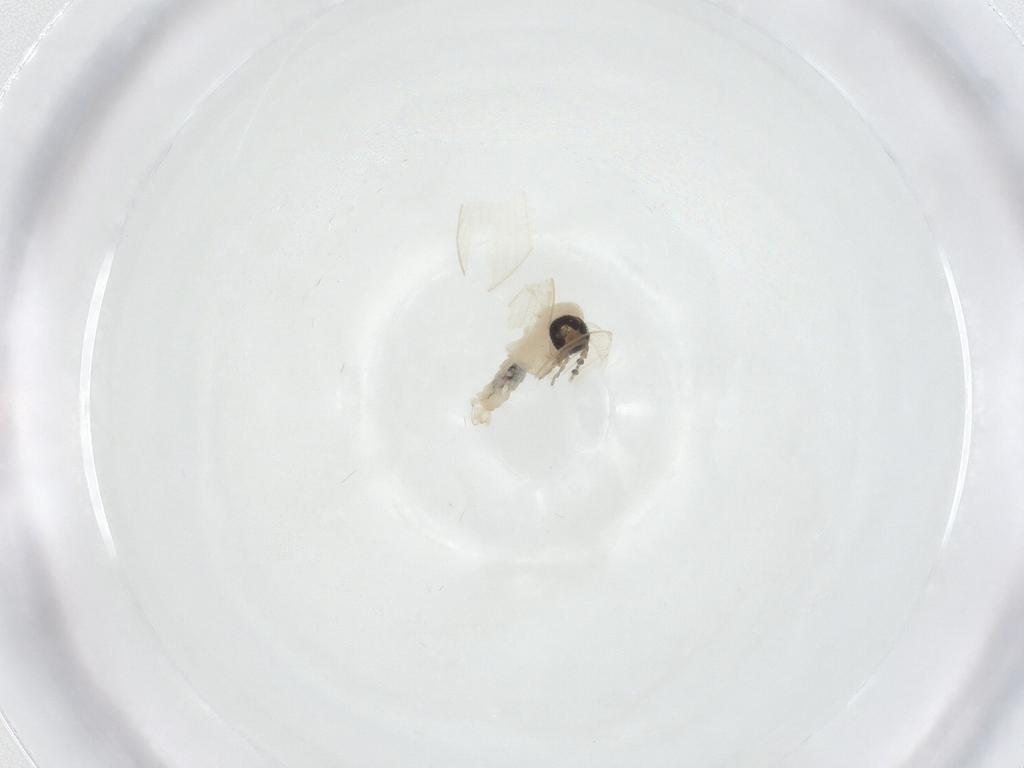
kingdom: Animalia
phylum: Arthropoda
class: Insecta
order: Diptera
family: Psychodidae
